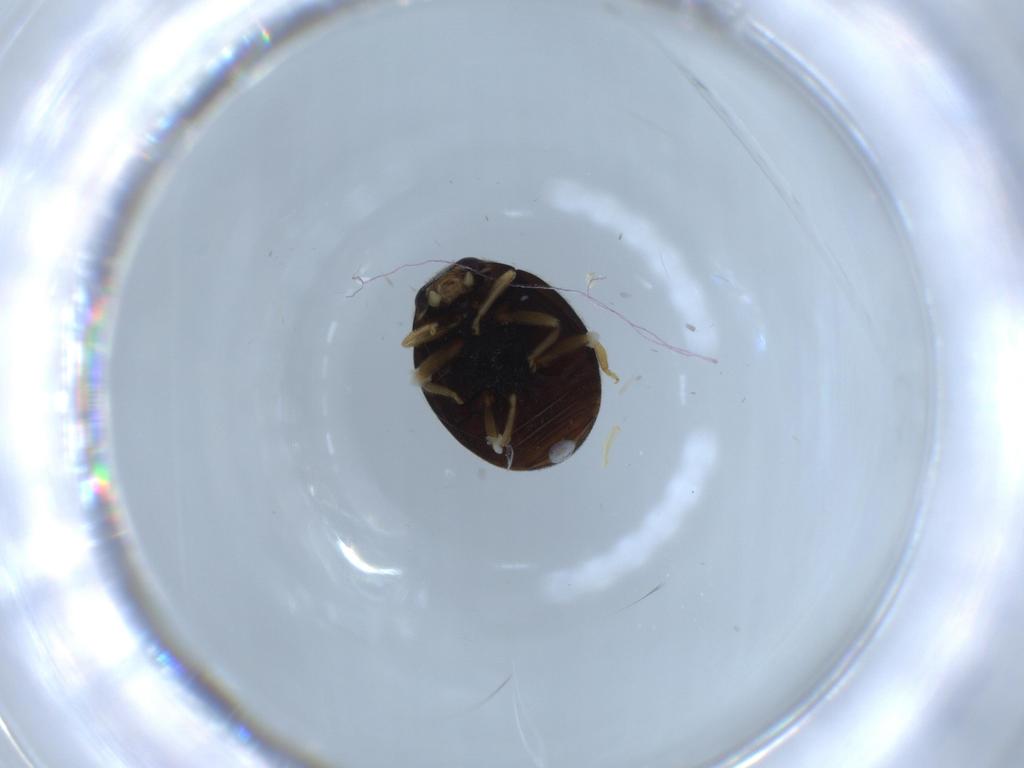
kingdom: Animalia
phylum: Arthropoda
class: Insecta
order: Coleoptera
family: Coccinellidae
